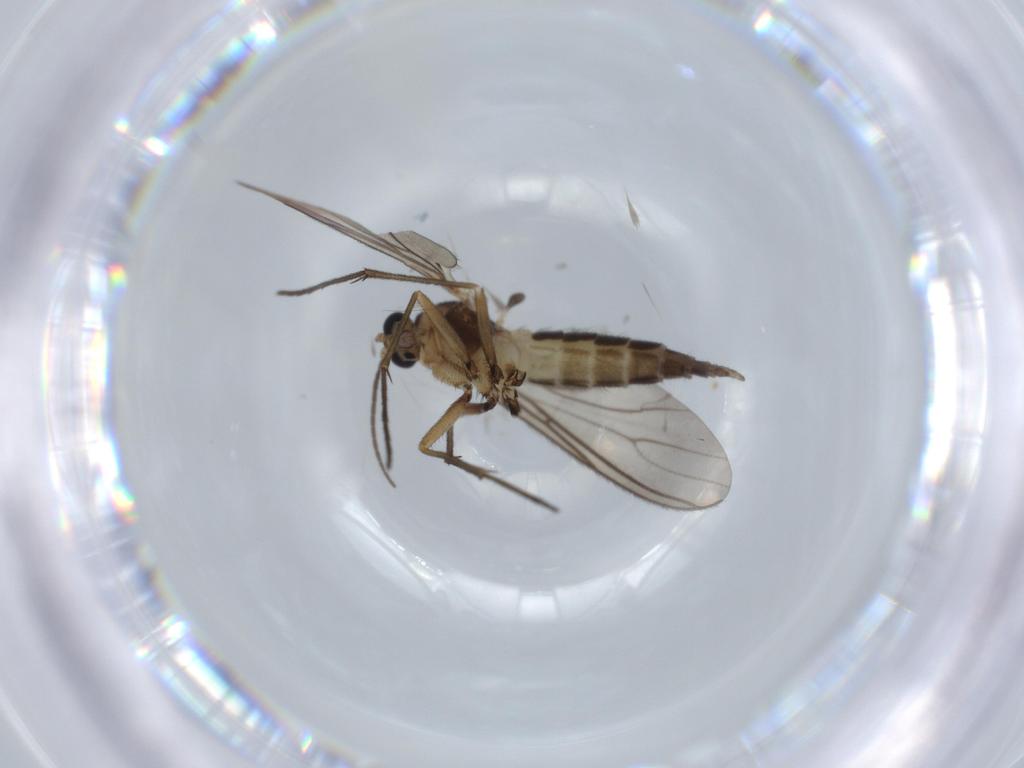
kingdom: Animalia
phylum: Arthropoda
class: Insecta
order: Diptera
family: Sciaridae
